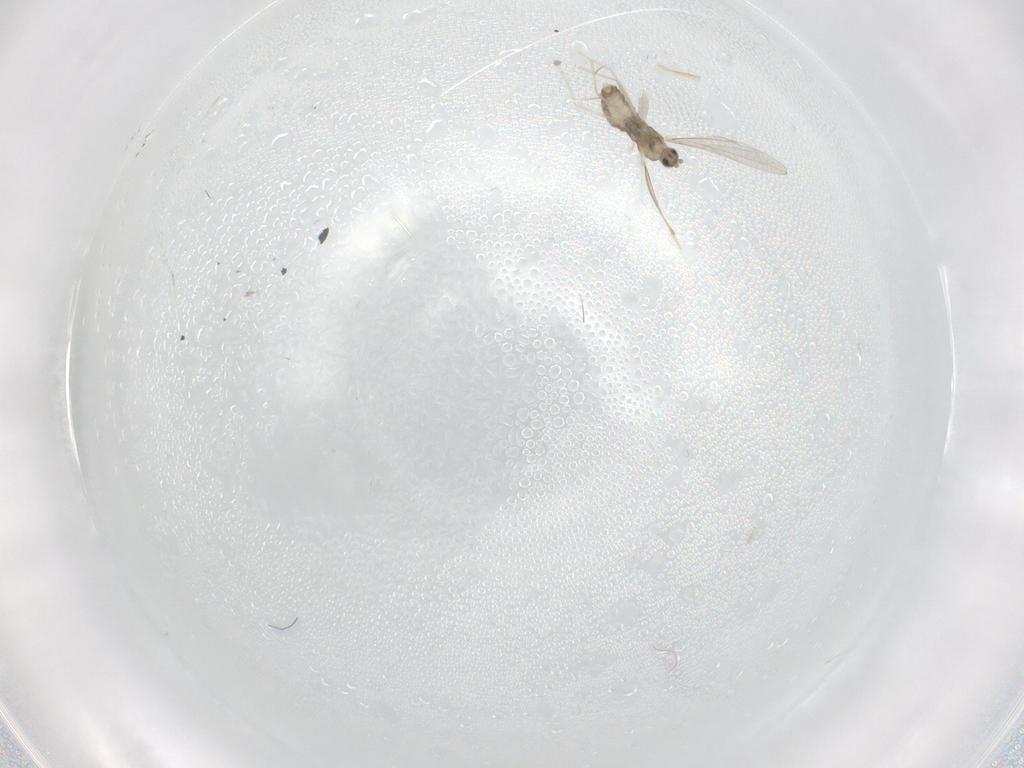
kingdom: Animalia
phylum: Arthropoda
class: Insecta
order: Diptera
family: Cecidomyiidae
